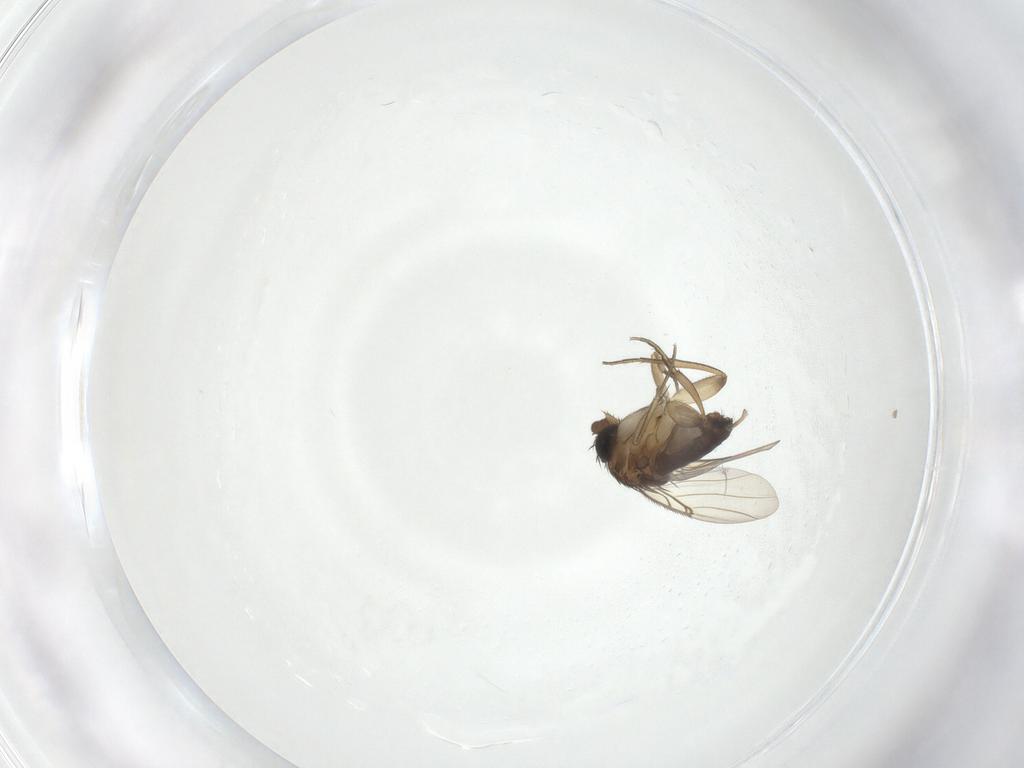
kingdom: Animalia
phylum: Arthropoda
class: Insecta
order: Diptera
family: Phoridae
